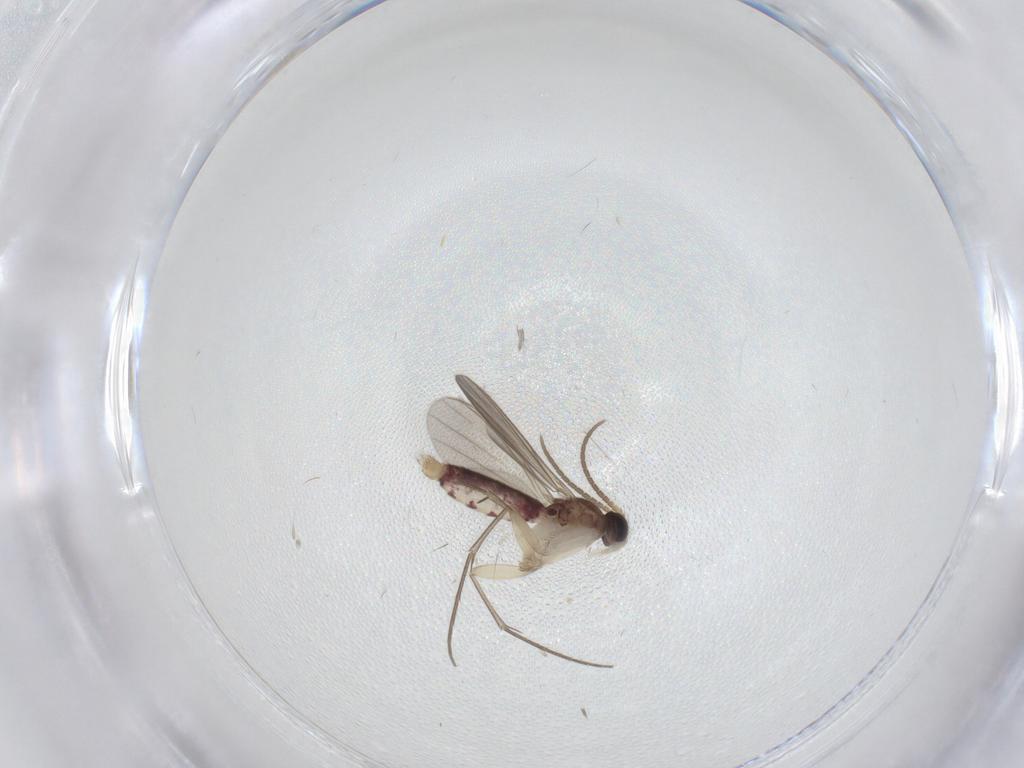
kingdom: Animalia
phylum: Arthropoda
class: Insecta
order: Diptera
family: Mycetophilidae
